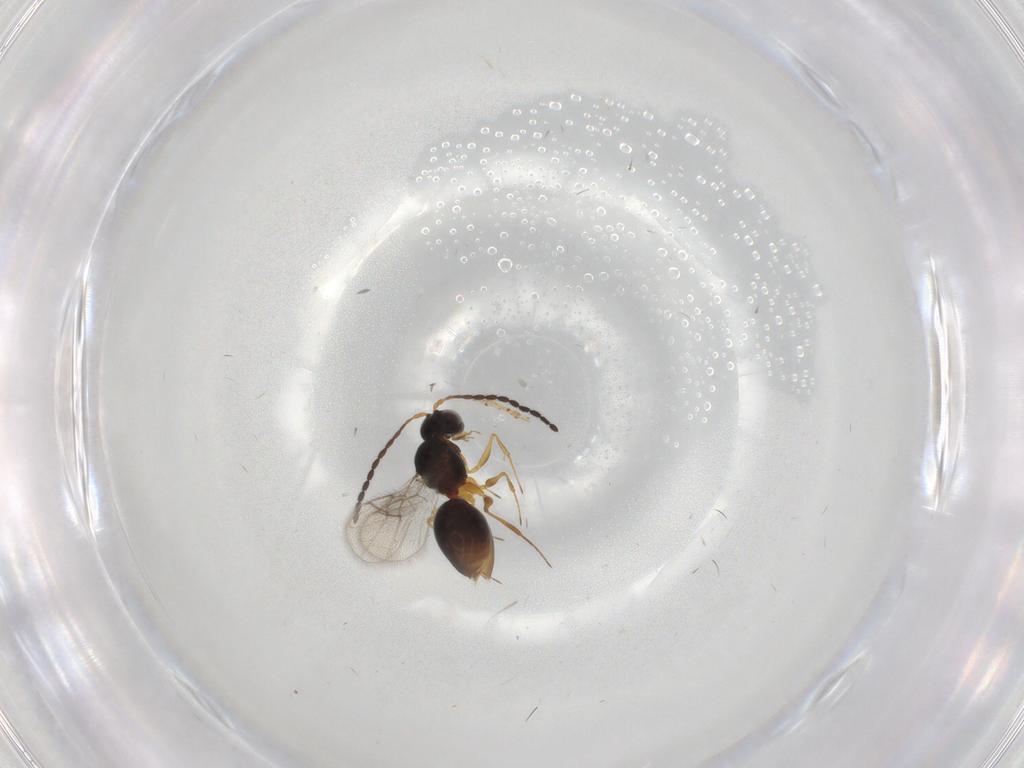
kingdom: Animalia
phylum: Arthropoda
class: Insecta
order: Hymenoptera
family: Figitidae
